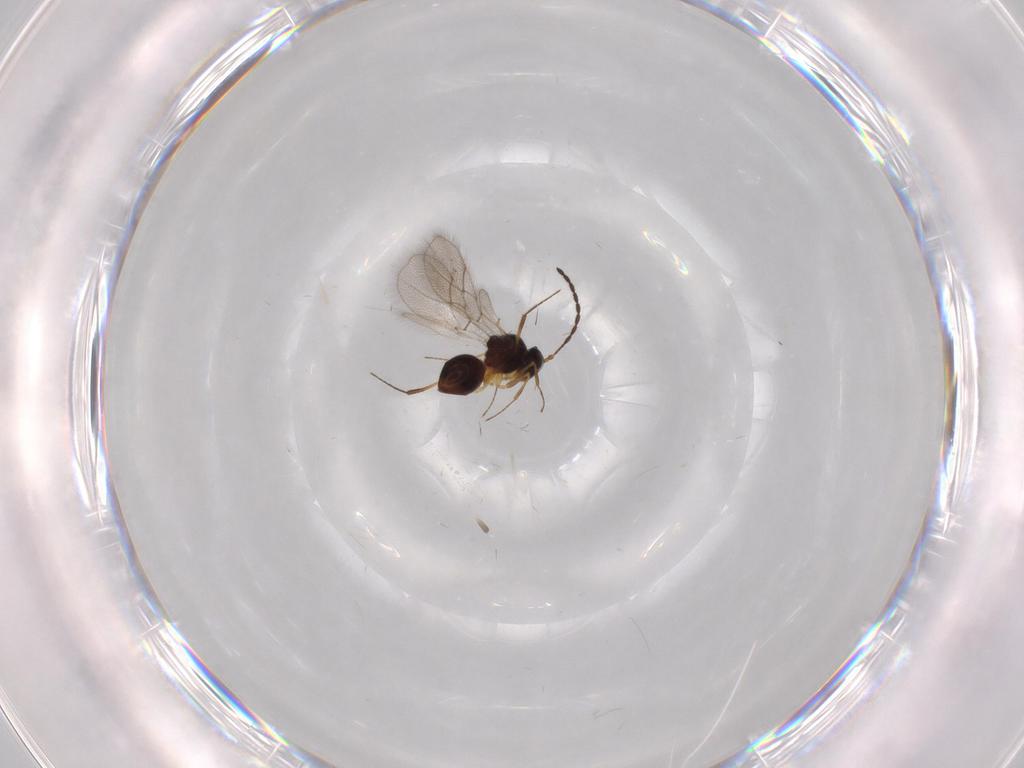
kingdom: Animalia
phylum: Arthropoda
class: Insecta
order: Hymenoptera
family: Figitidae
